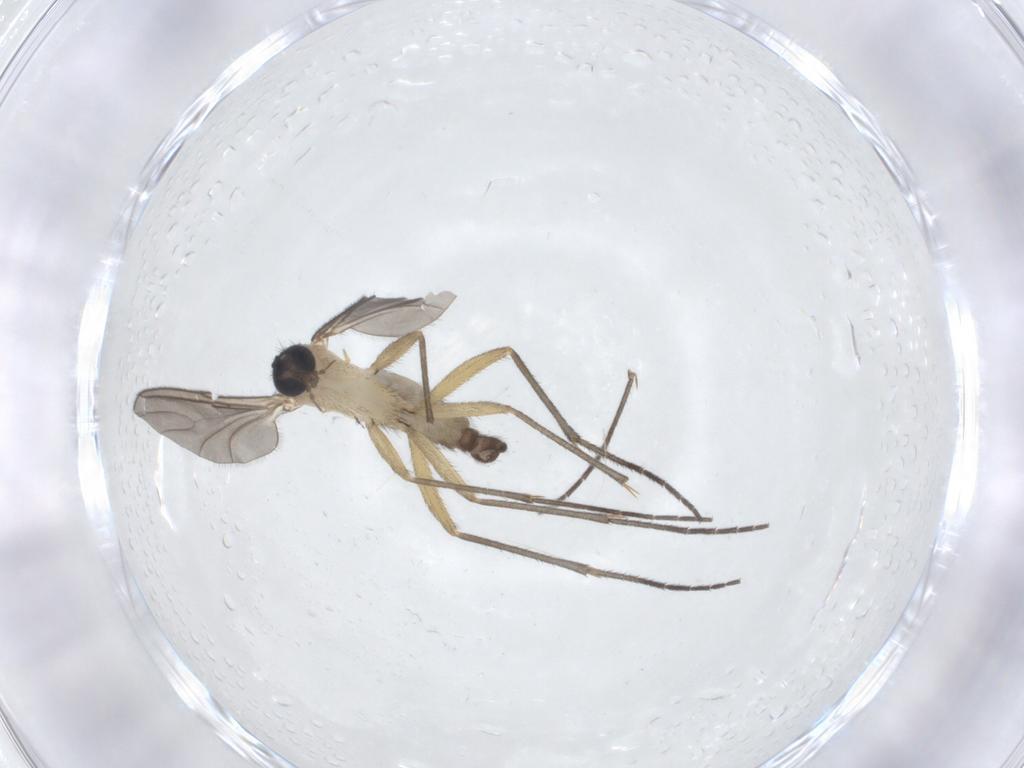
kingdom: Animalia
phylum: Arthropoda
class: Insecta
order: Diptera
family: Sciaridae
